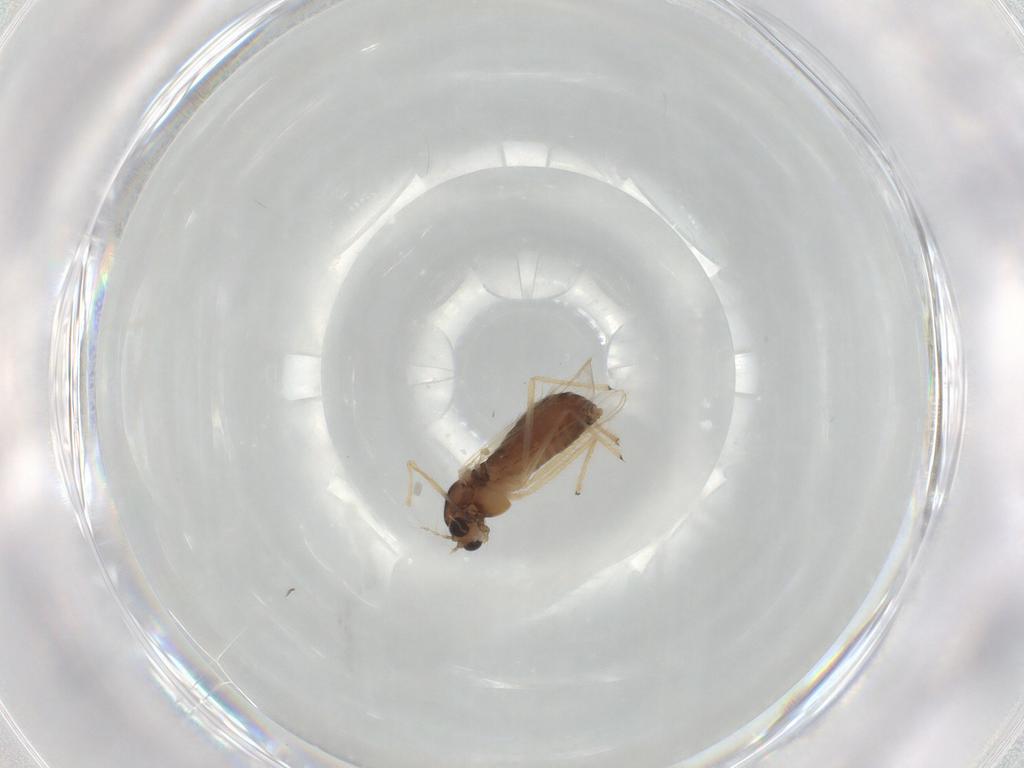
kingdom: Animalia
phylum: Arthropoda
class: Insecta
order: Diptera
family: Chironomidae
